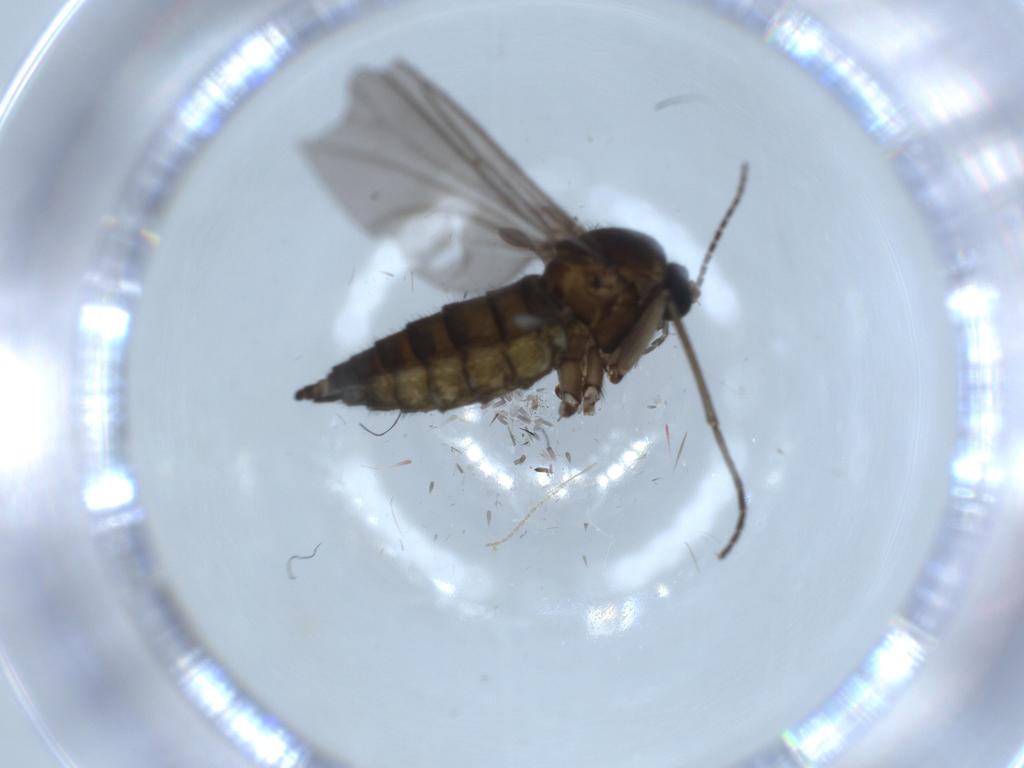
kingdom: Animalia
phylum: Arthropoda
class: Insecta
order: Diptera
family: Sciaridae
